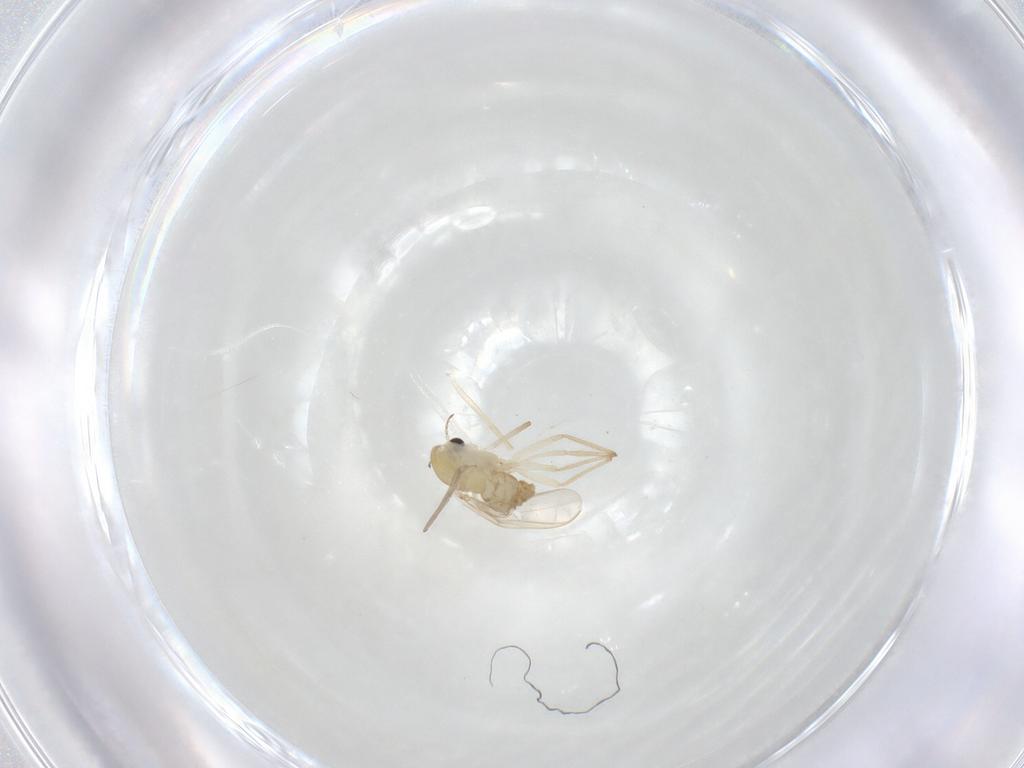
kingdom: Animalia
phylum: Arthropoda
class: Insecta
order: Diptera
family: Chironomidae
